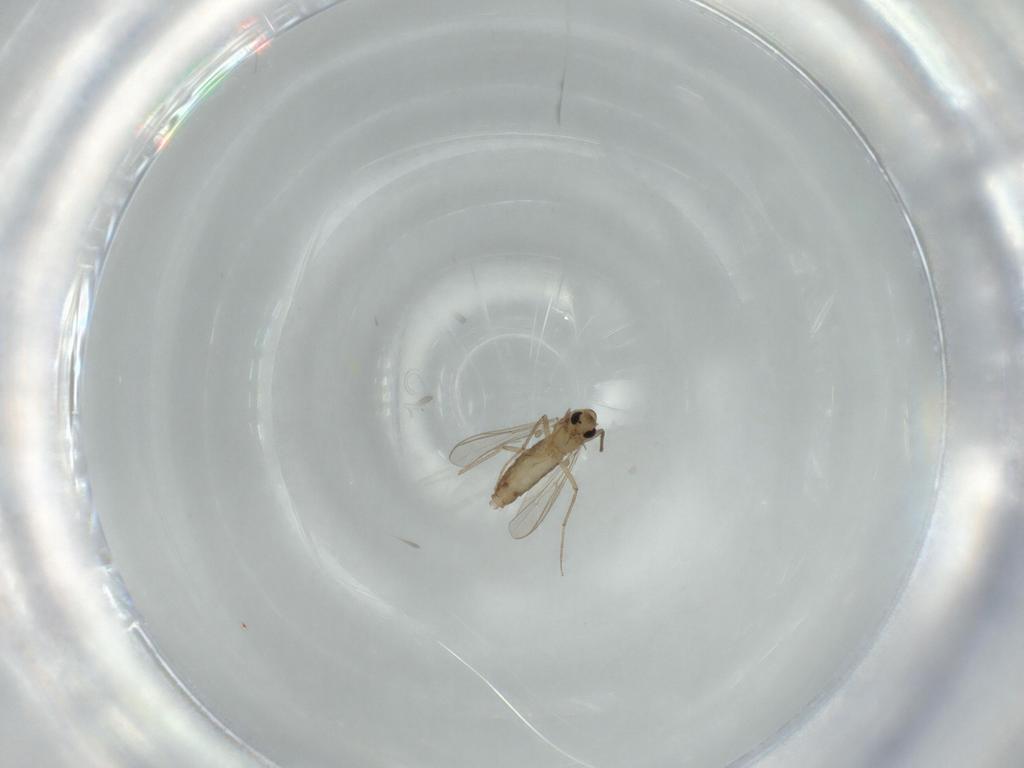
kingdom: Animalia
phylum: Arthropoda
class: Insecta
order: Diptera
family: Chironomidae
